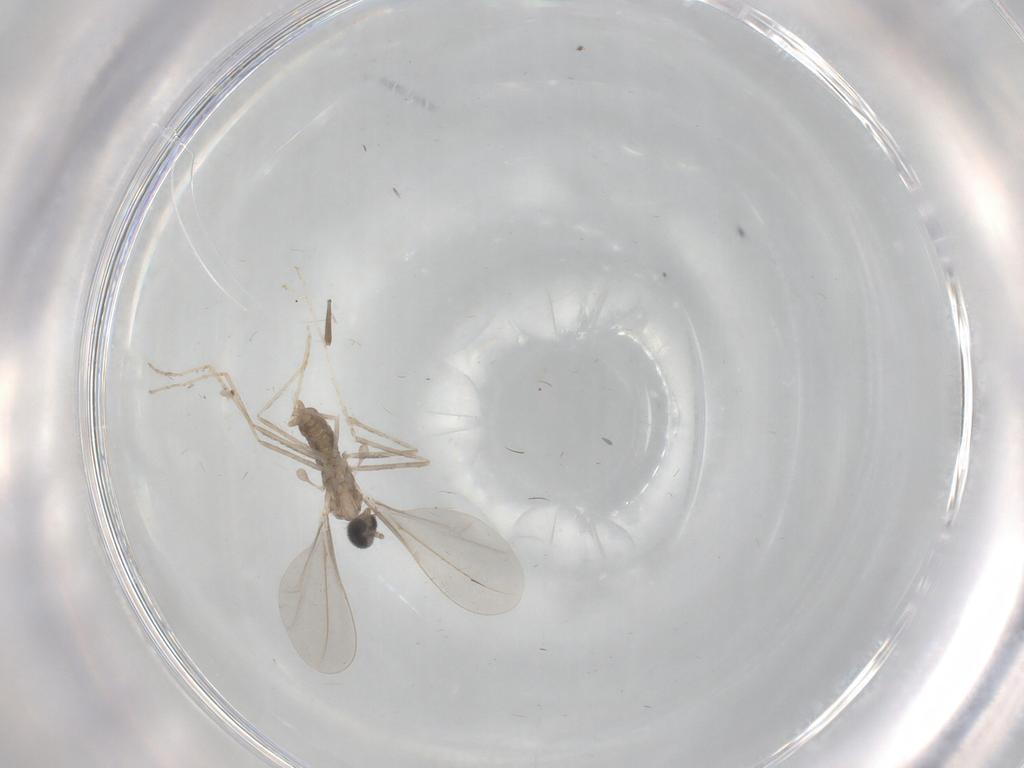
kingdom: Animalia
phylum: Arthropoda
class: Insecta
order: Diptera
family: Cecidomyiidae
